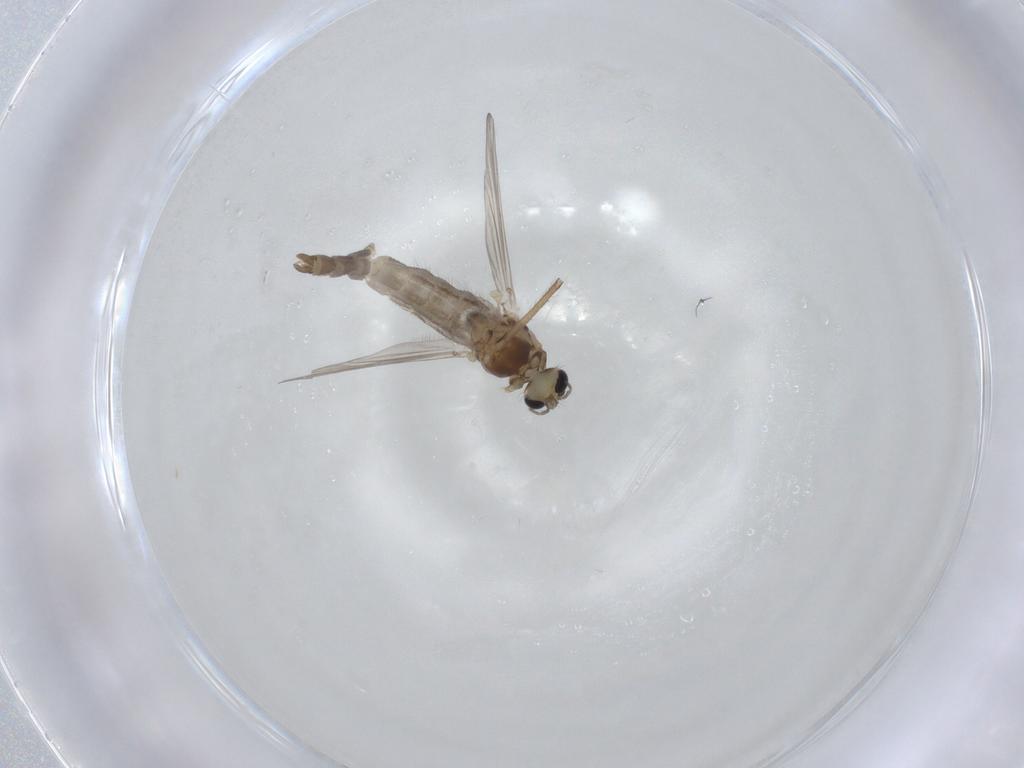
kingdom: Animalia
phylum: Arthropoda
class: Insecta
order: Diptera
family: Chironomidae
